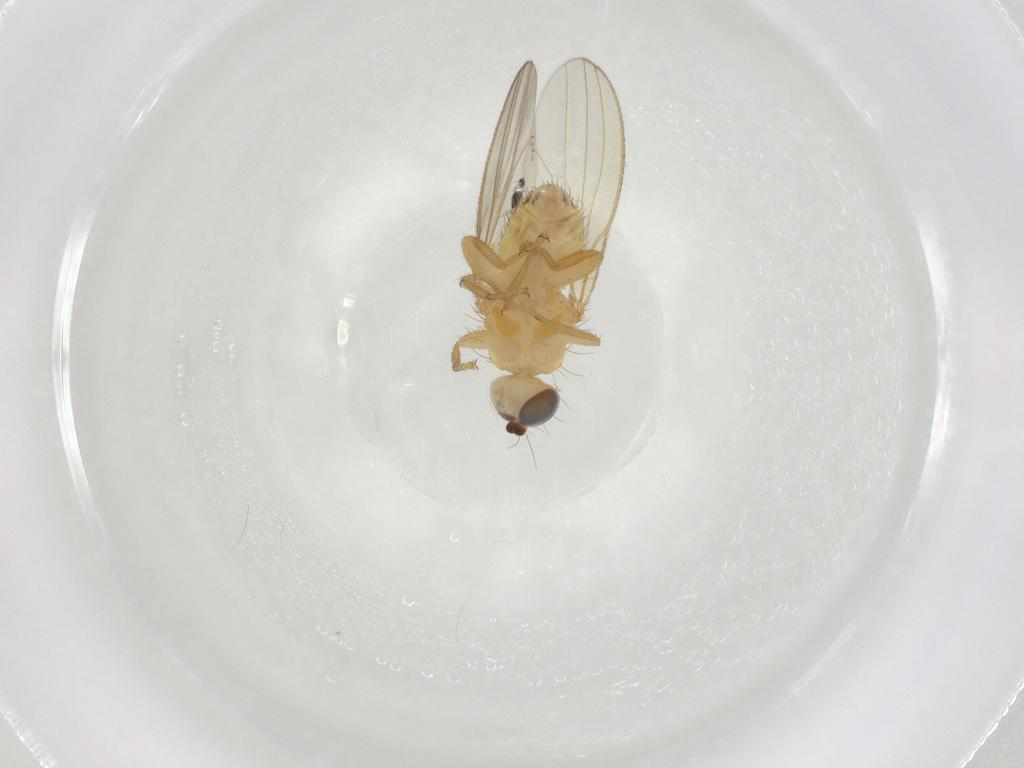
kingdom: Animalia
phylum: Arthropoda
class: Insecta
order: Diptera
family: Chyromyidae
